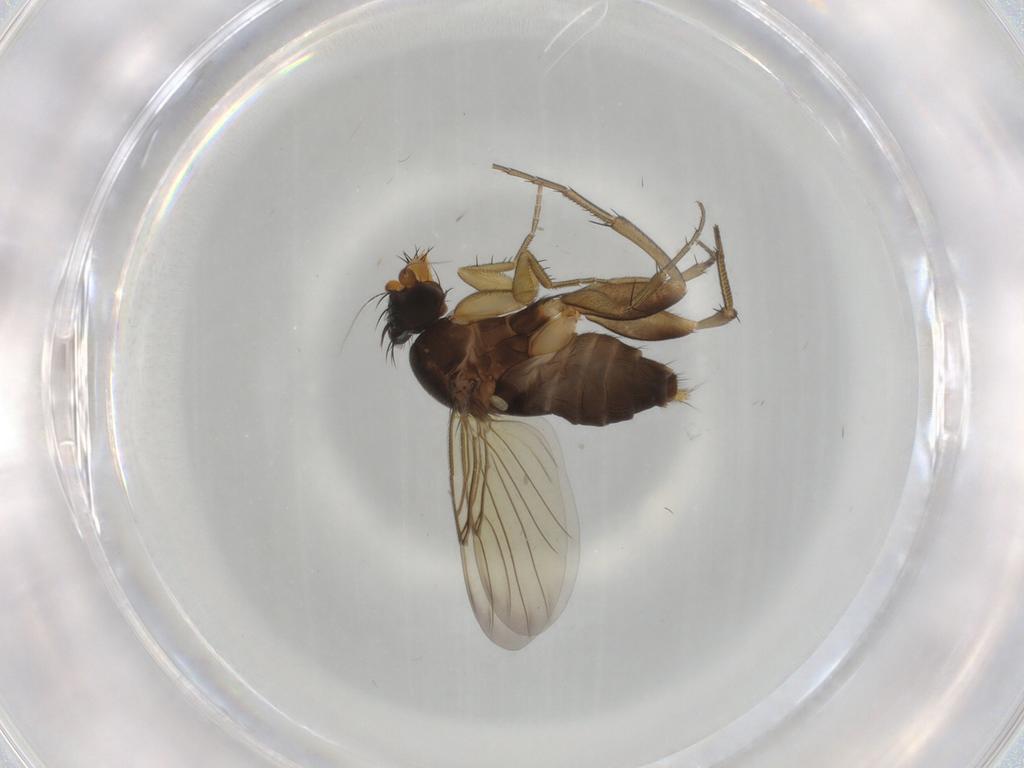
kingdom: Animalia
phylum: Arthropoda
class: Insecta
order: Diptera
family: Phoridae
